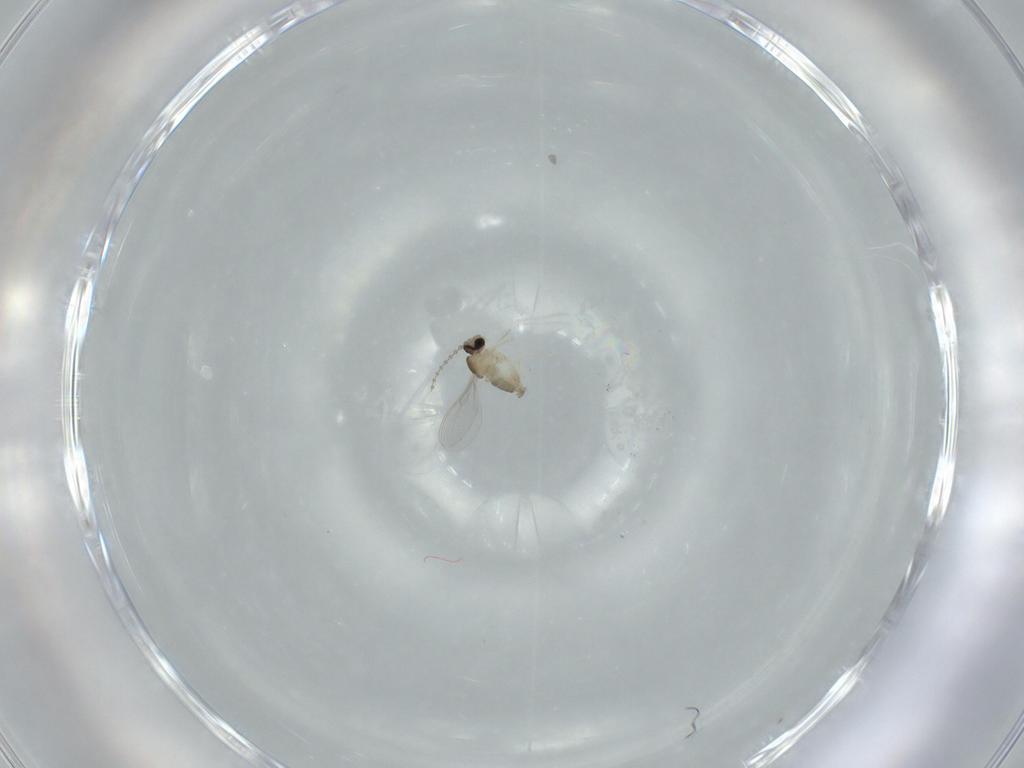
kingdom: Animalia
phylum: Arthropoda
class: Insecta
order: Diptera
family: Cecidomyiidae
